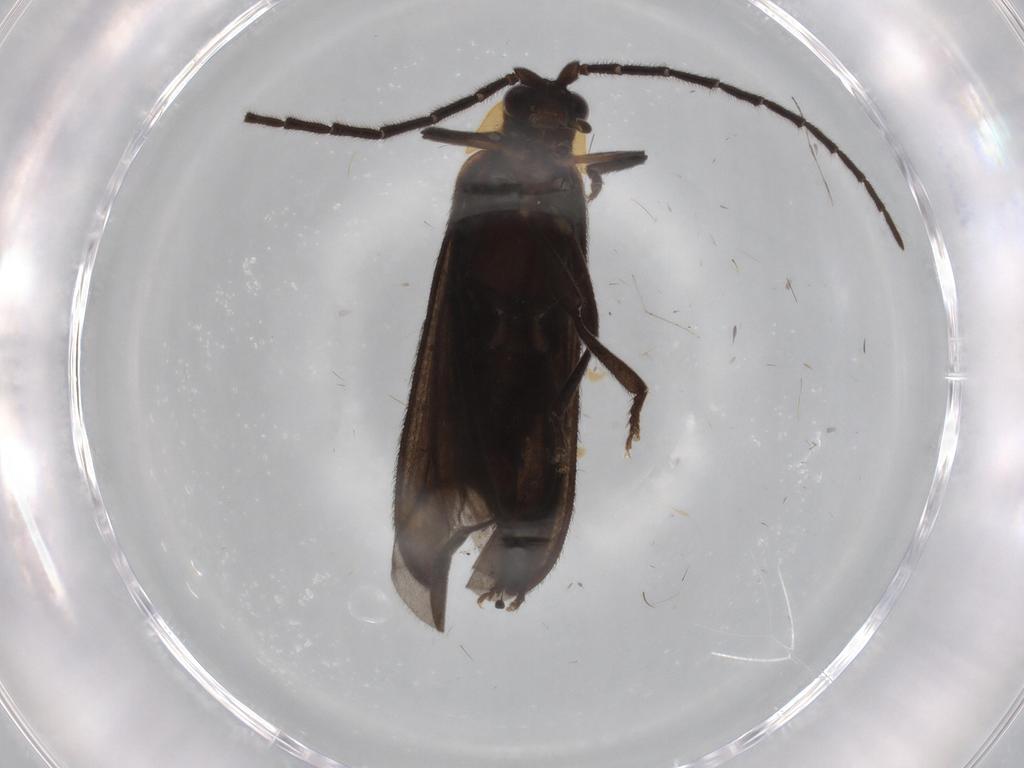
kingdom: Animalia
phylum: Arthropoda
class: Insecta
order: Coleoptera
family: Lycidae
